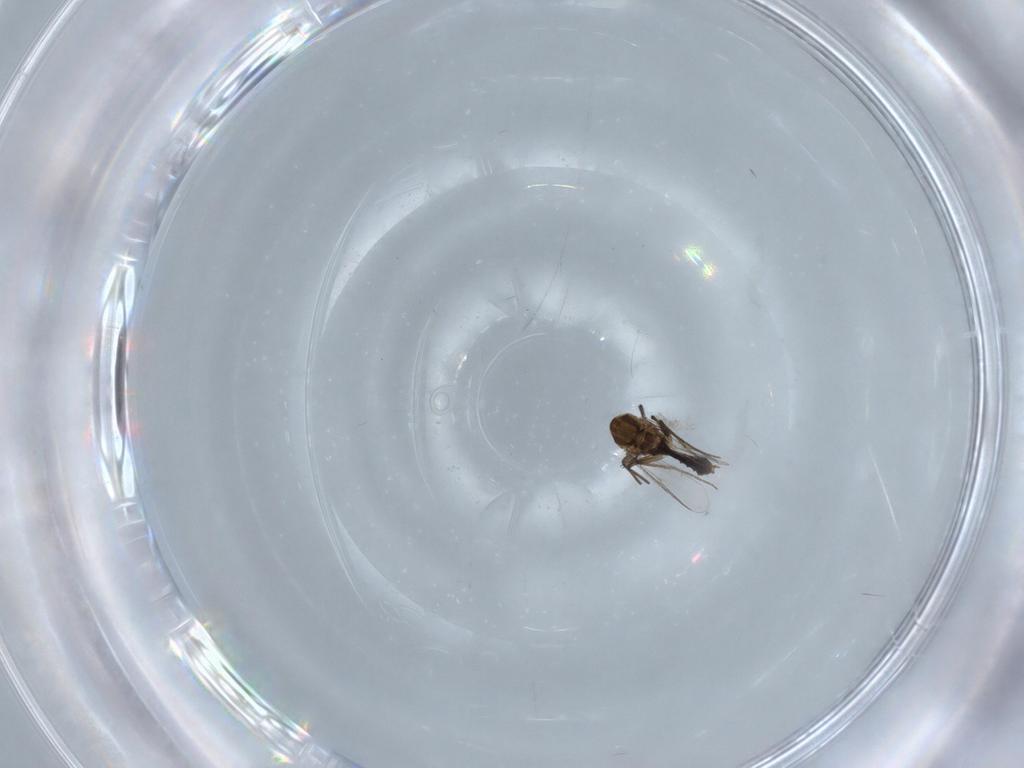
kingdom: Animalia
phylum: Arthropoda
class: Insecta
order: Diptera
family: Chironomidae
